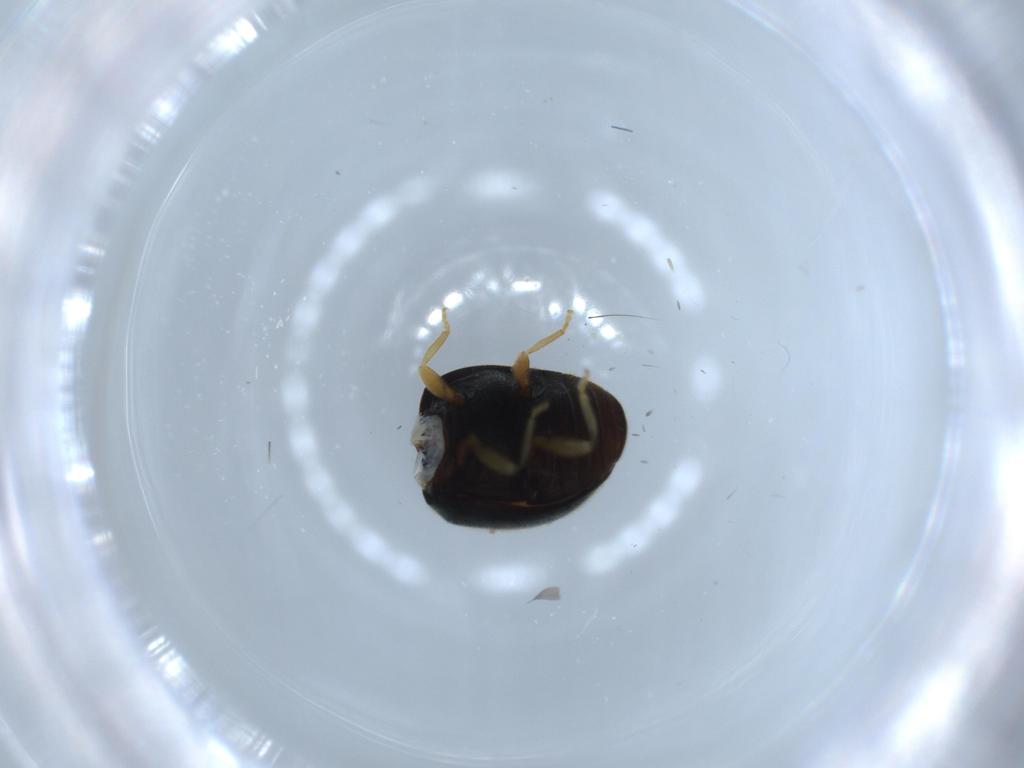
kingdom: Animalia
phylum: Arthropoda
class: Insecta
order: Coleoptera
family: Coccinellidae
